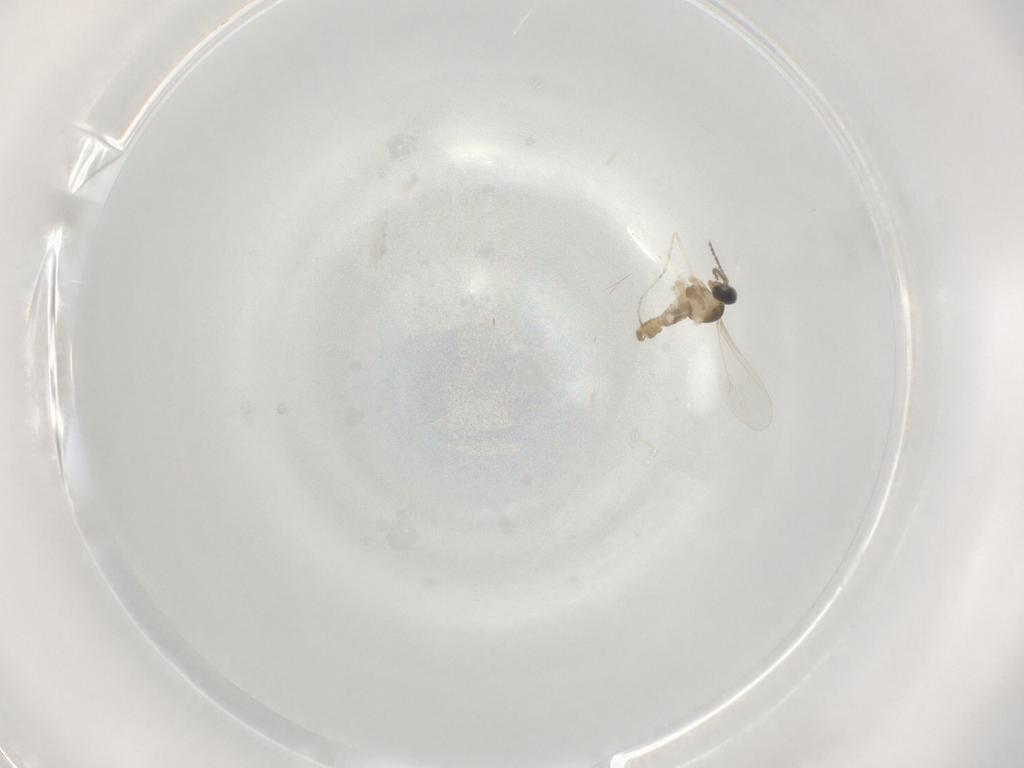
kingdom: Animalia
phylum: Arthropoda
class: Insecta
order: Diptera
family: Cecidomyiidae
